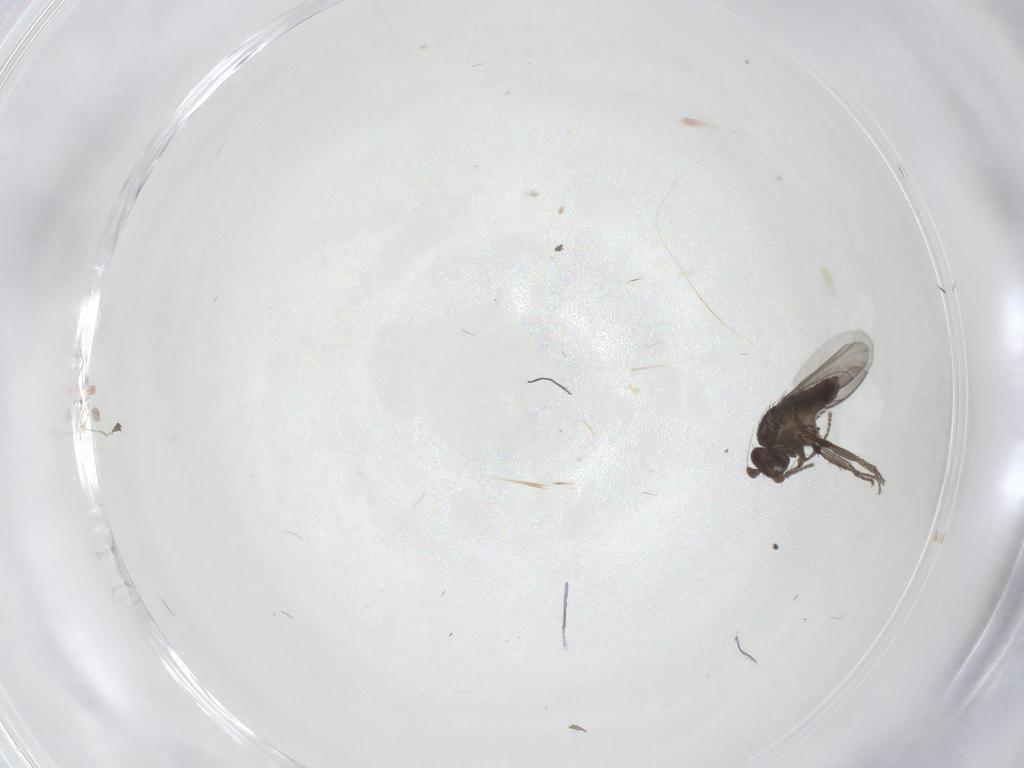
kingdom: Animalia
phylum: Arthropoda
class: Insecta
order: Diptera
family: Sphaeroceridae
